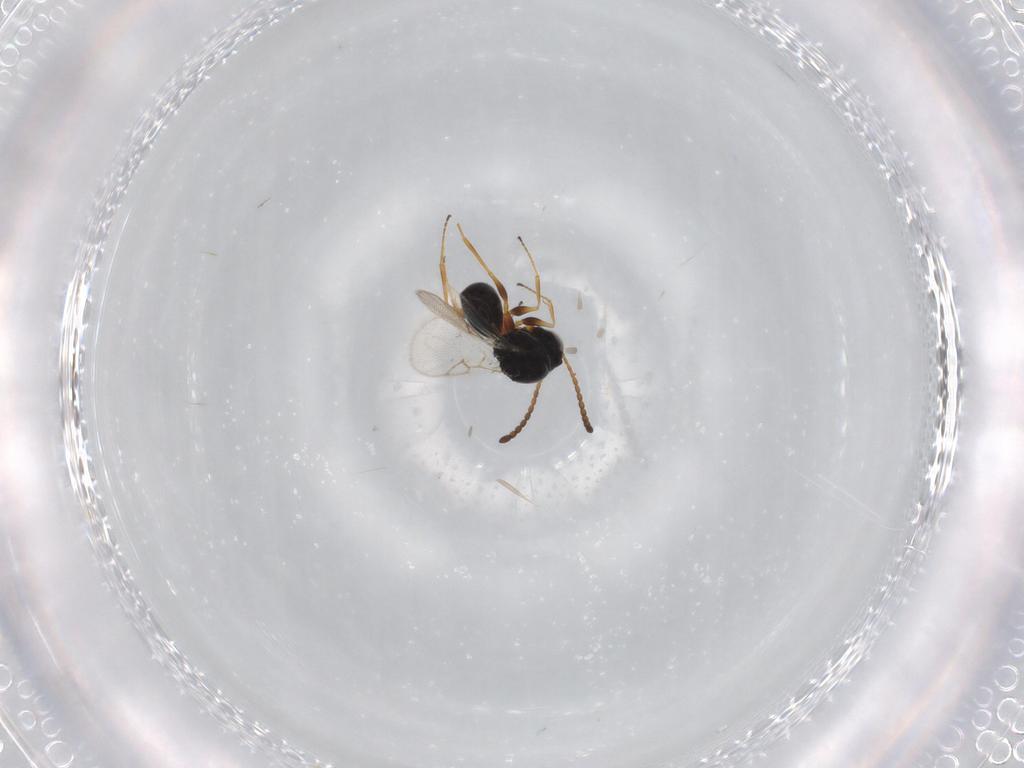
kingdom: Animalia
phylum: Arthropoda
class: Insecta
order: Hymenoptera
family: Figitidae
